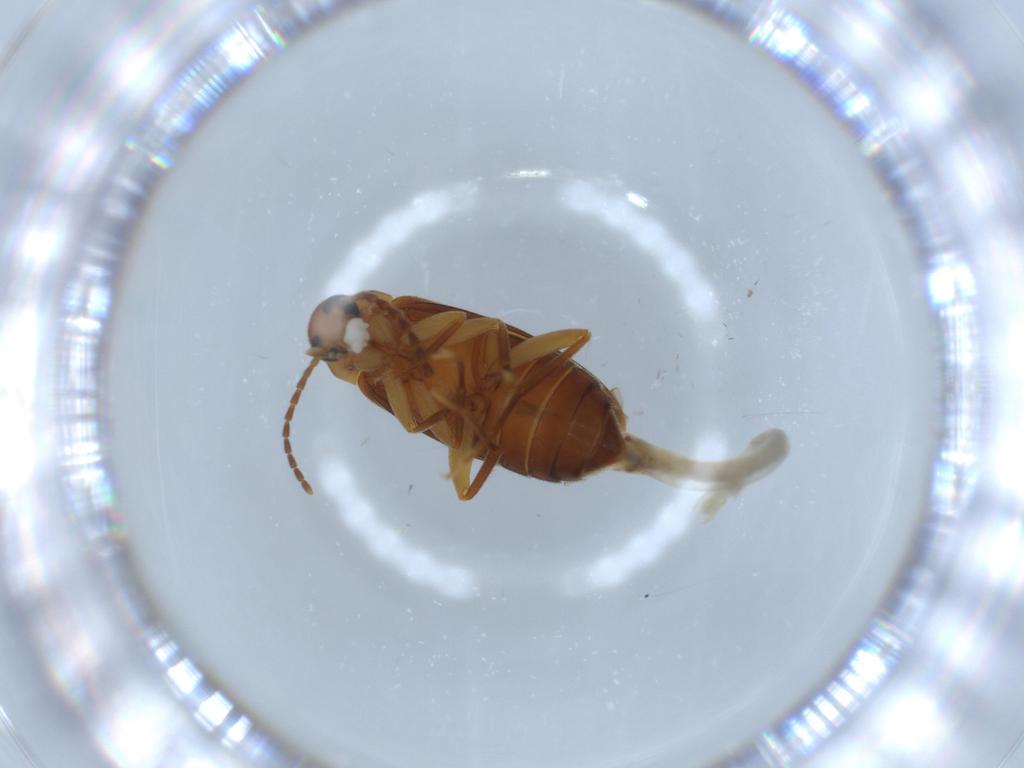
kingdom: Animalia
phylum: Arthropoda
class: Insecta
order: Coleoptera
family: Scraptiidae
